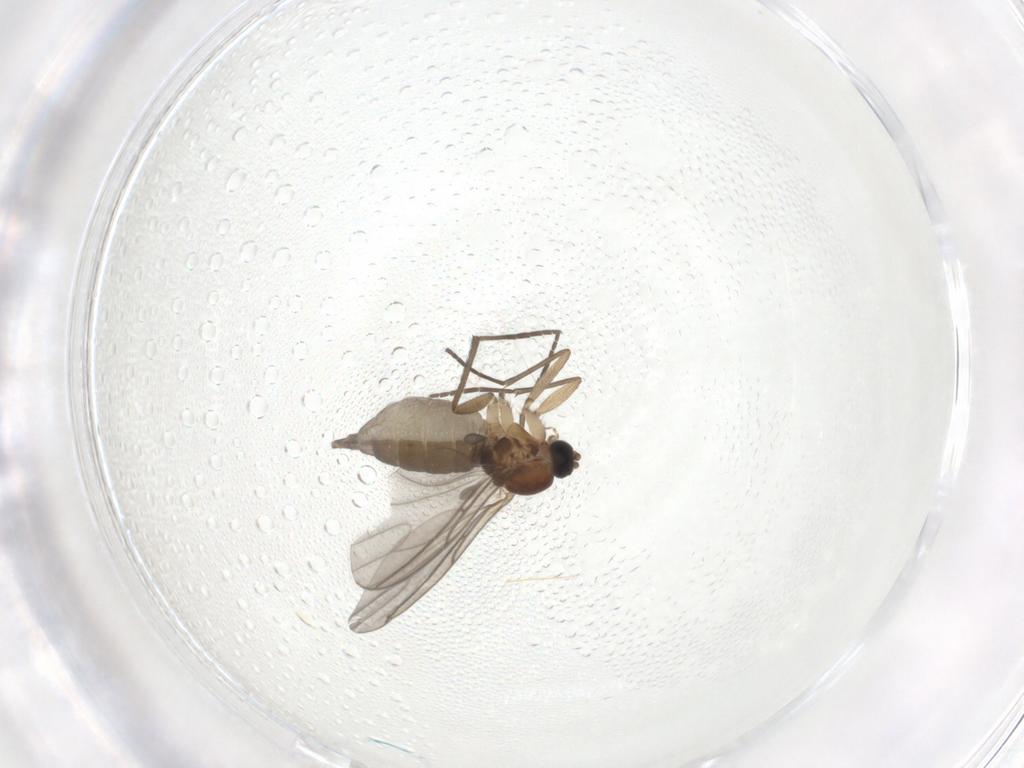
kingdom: Animalia
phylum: Arthropoda
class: Insecta
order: Diptera
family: Sciaridae
